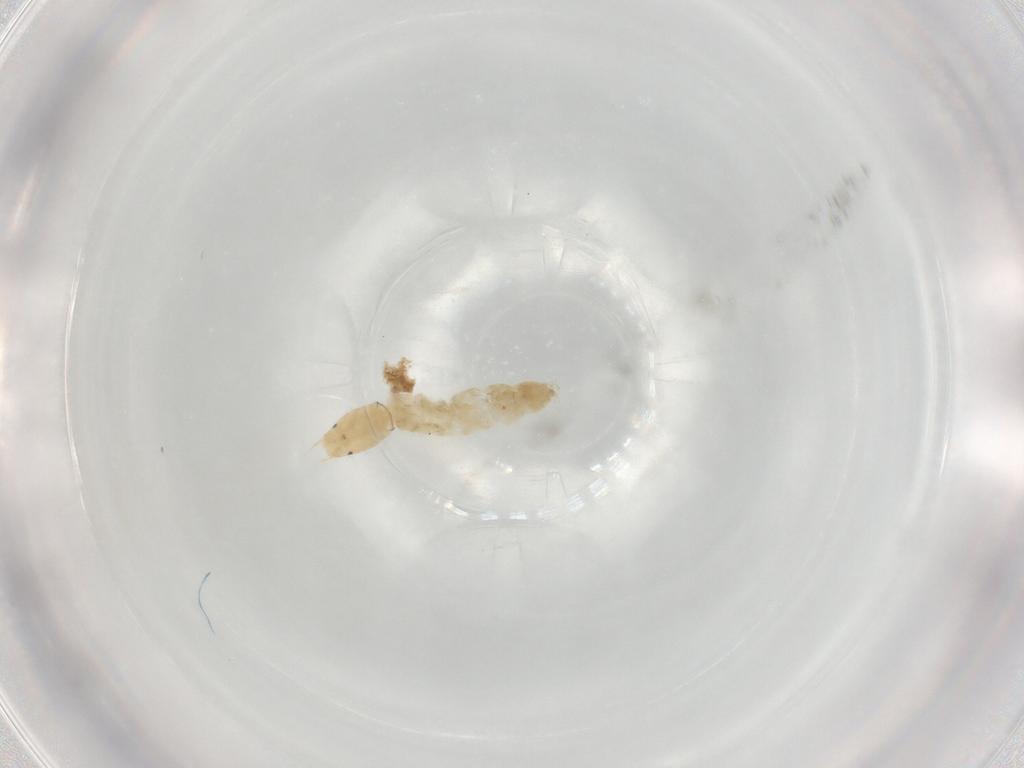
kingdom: Animalia
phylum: Arthropoda
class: Insecta
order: Diptera
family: Chironomidae
